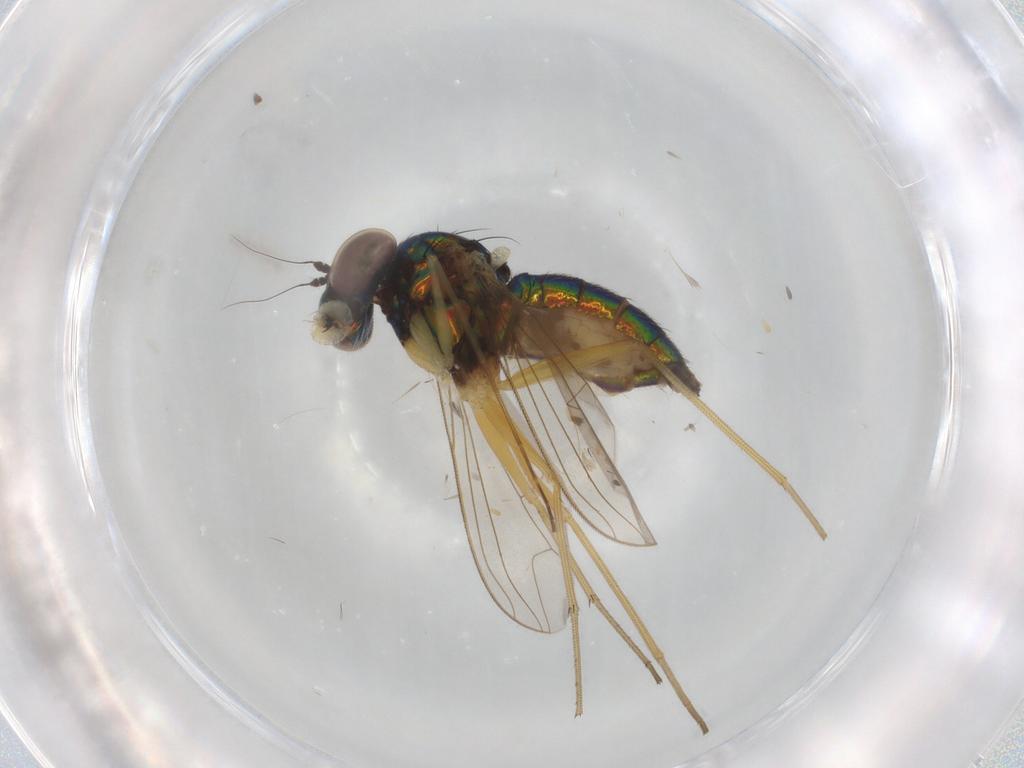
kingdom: Animalia
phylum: Arthropoda
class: Insecta
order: Diptera
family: Dolichopodidae
